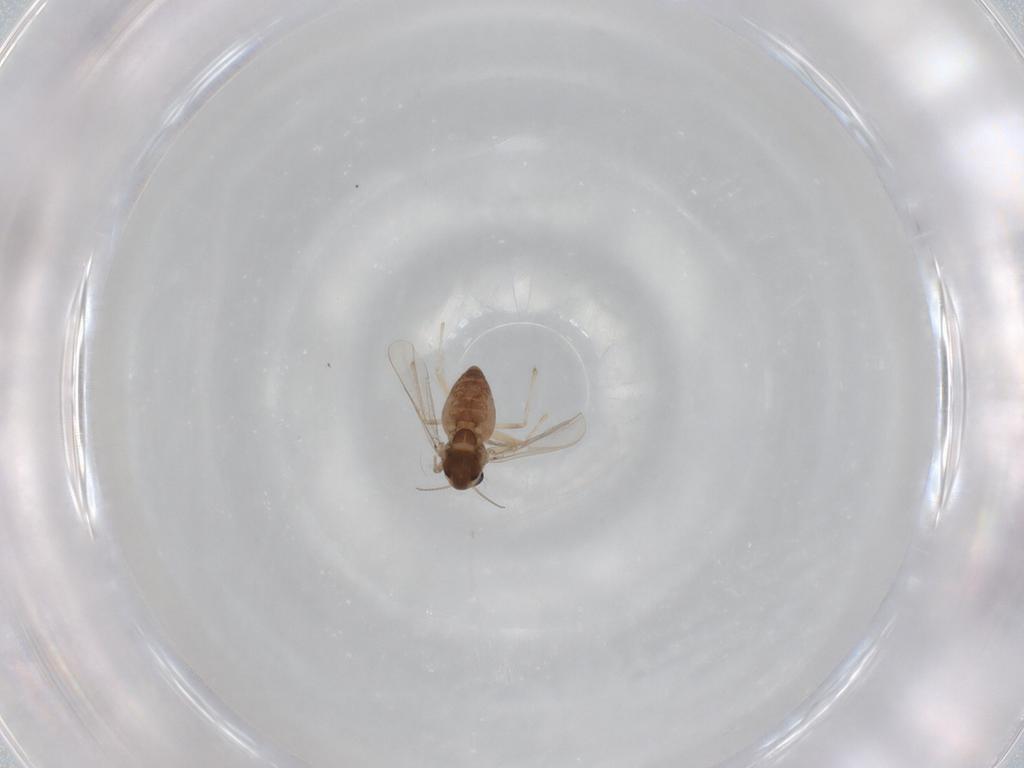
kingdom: Animalia
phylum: Arthropoda
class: Insecta
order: Diptera
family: Chironomidae
